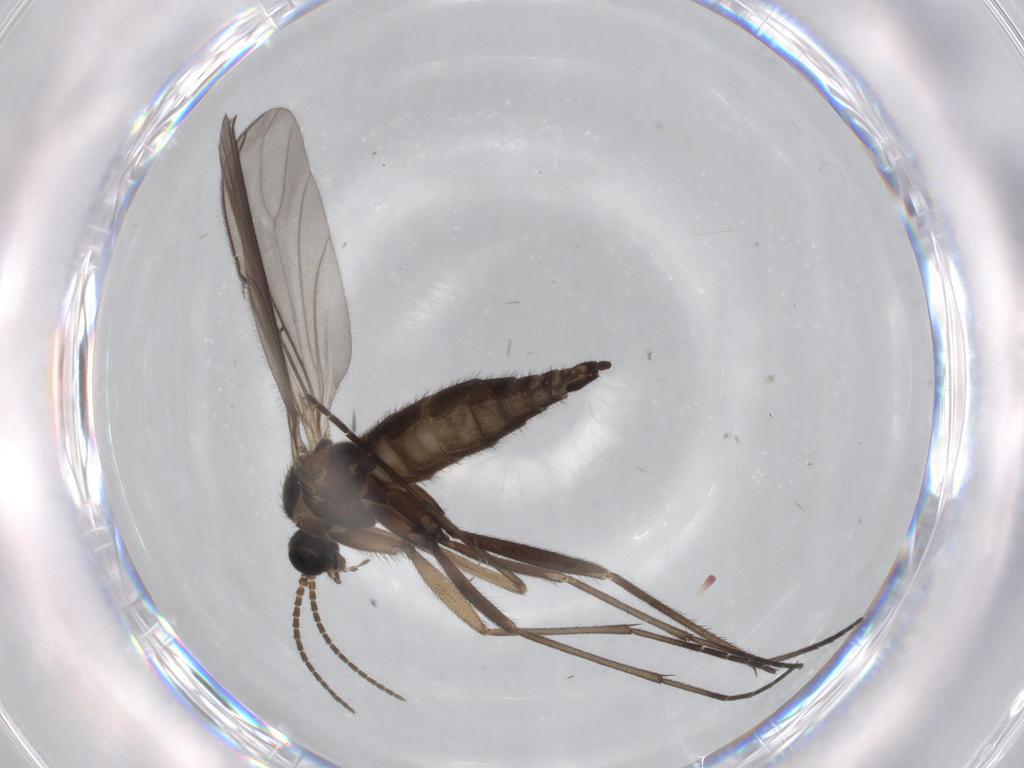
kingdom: Animalia
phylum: Arthropoda
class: Insecta
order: Diptera
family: Sciaridae
